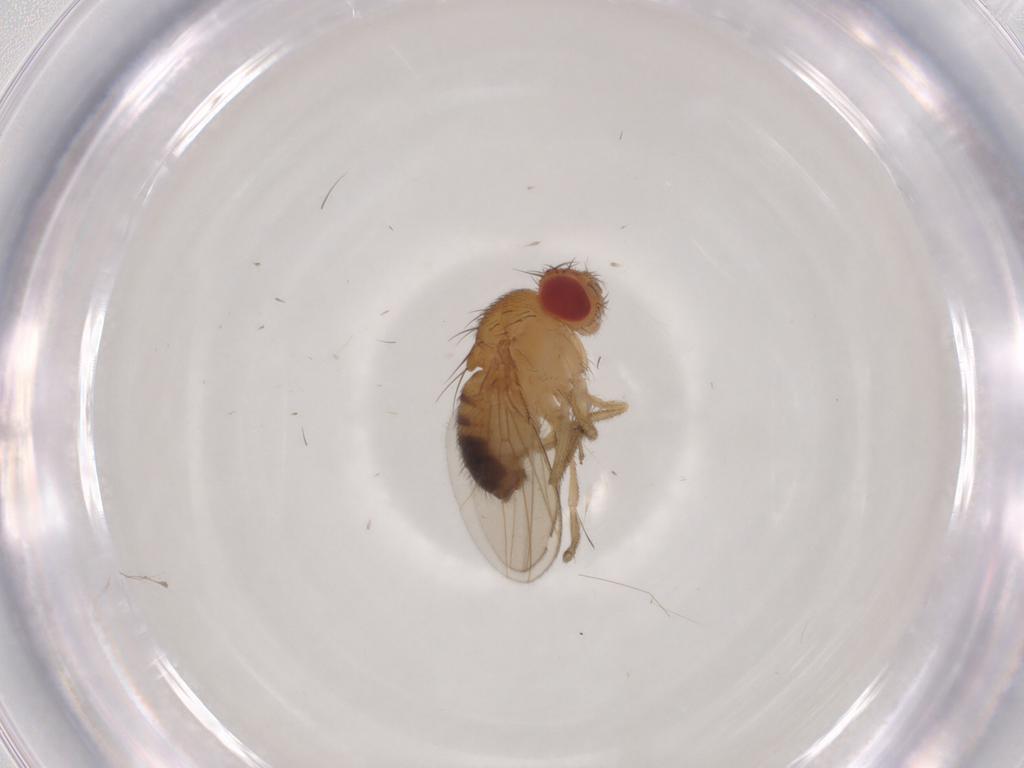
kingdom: Animalia
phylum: Arthropoda
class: Insecta
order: Diptera
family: Drosophilidae
